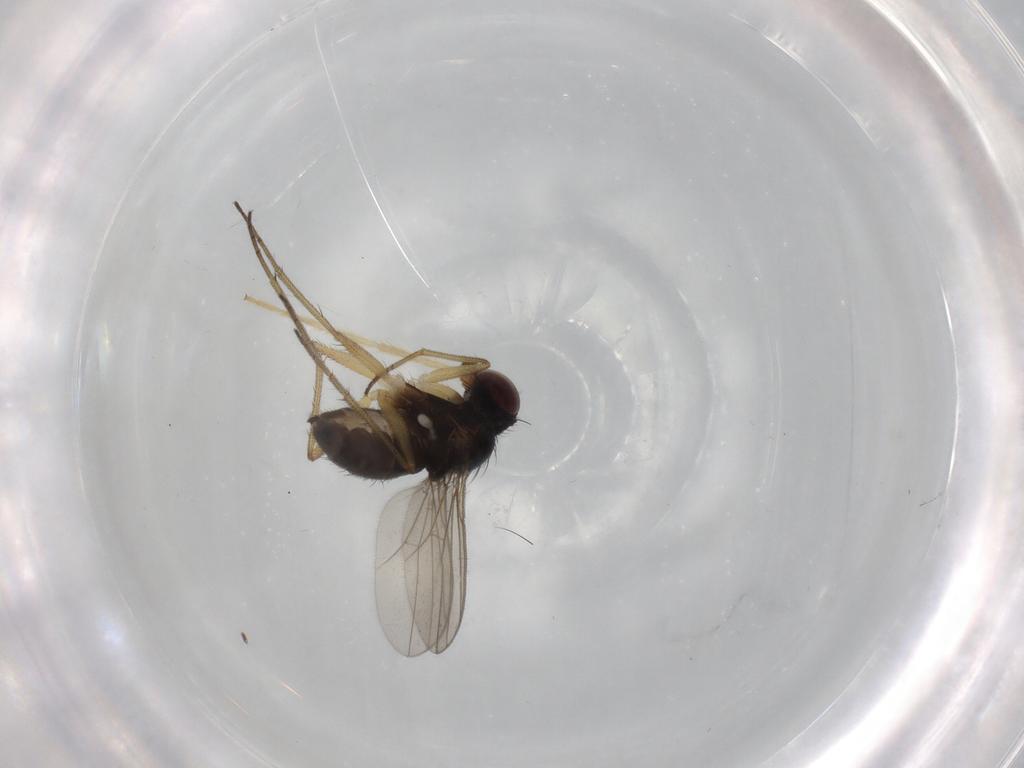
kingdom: Animalia
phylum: Arthropoda
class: Insecta
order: Diptera
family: Dolichopodidae
